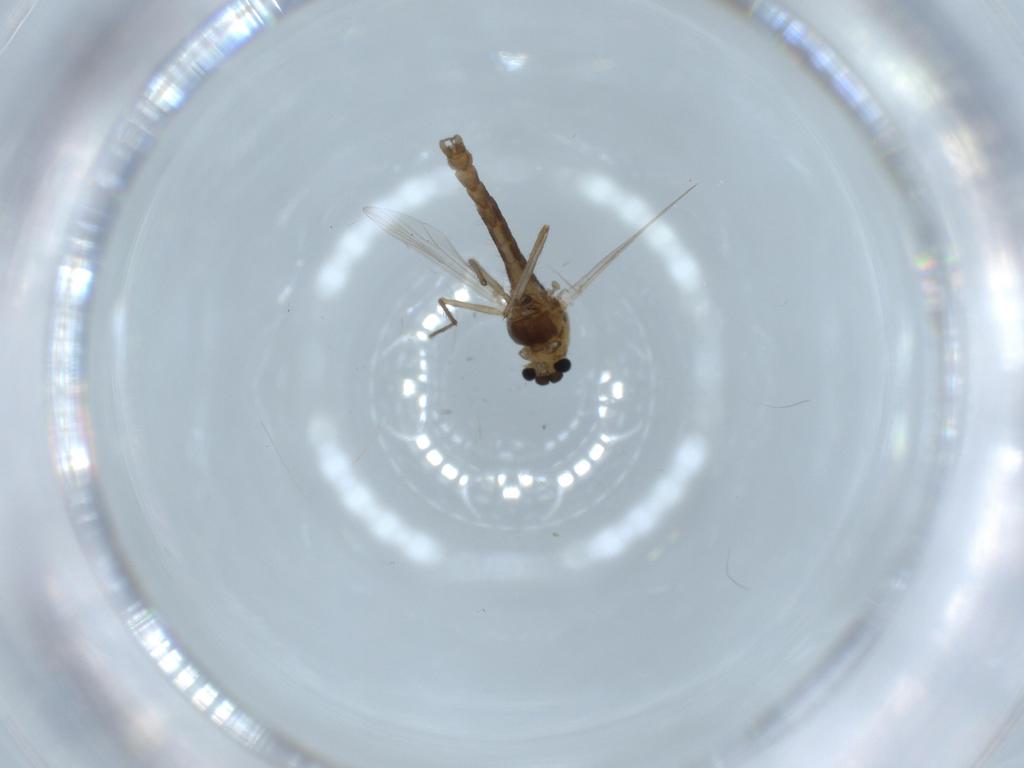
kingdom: Animalia
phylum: Arthropoda
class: Insecta
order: Diptera
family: Chironomidae
